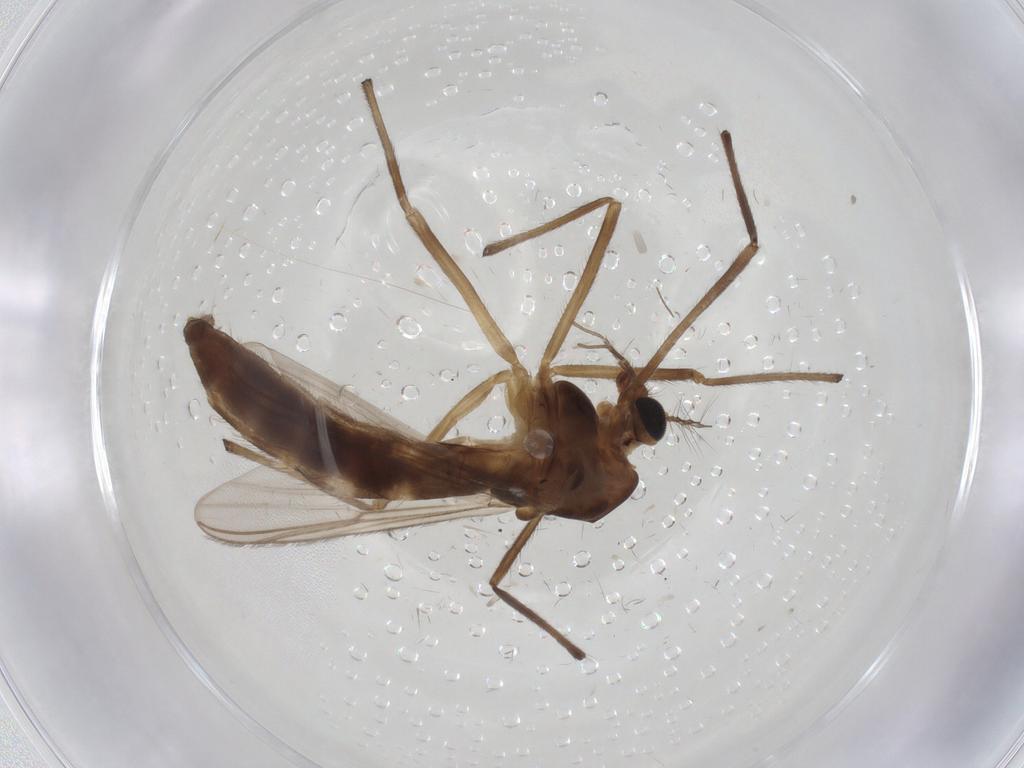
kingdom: Animalia
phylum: Arthropoda
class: Insecta
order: Diptera
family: Chironomidae
